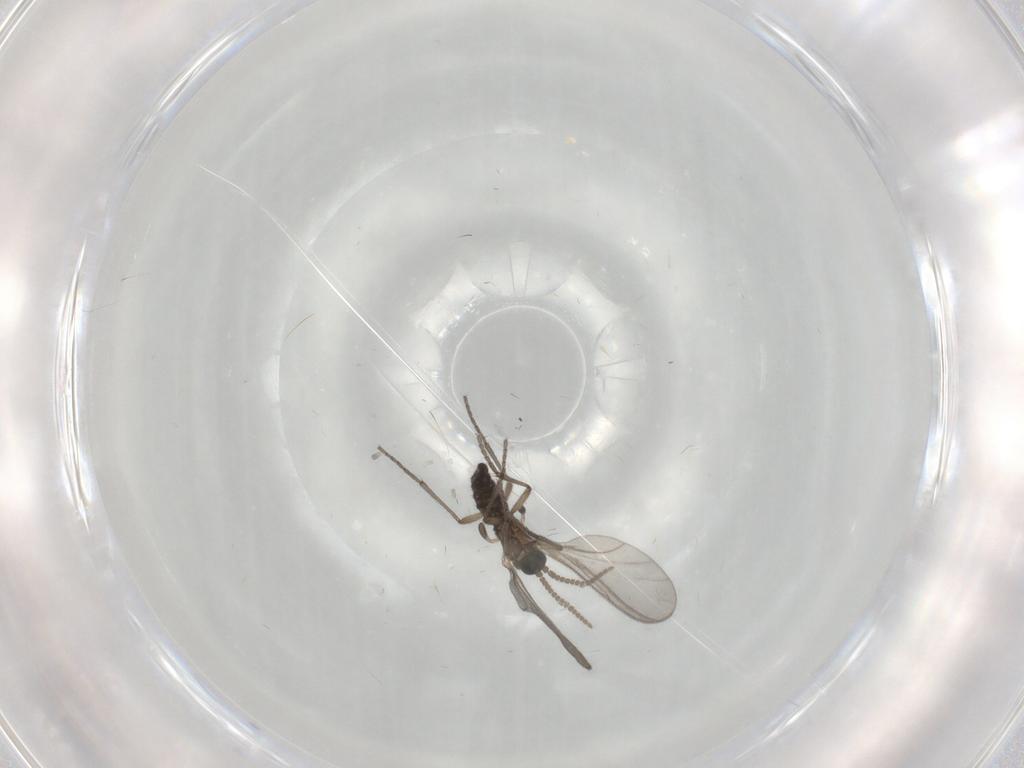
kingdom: Animalia
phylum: Arthropoda
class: Insecta
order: Diptera
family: Sciaridae
